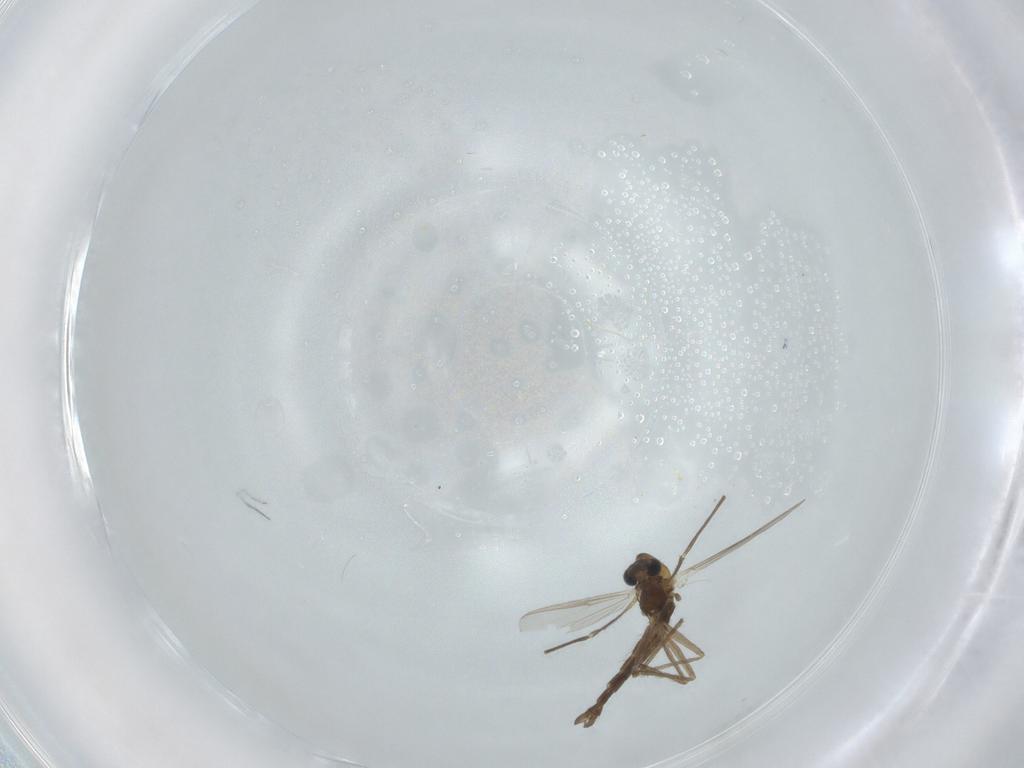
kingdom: Animalia
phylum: Arthropoda
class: Insecta
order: Diptera
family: Chironomidae
